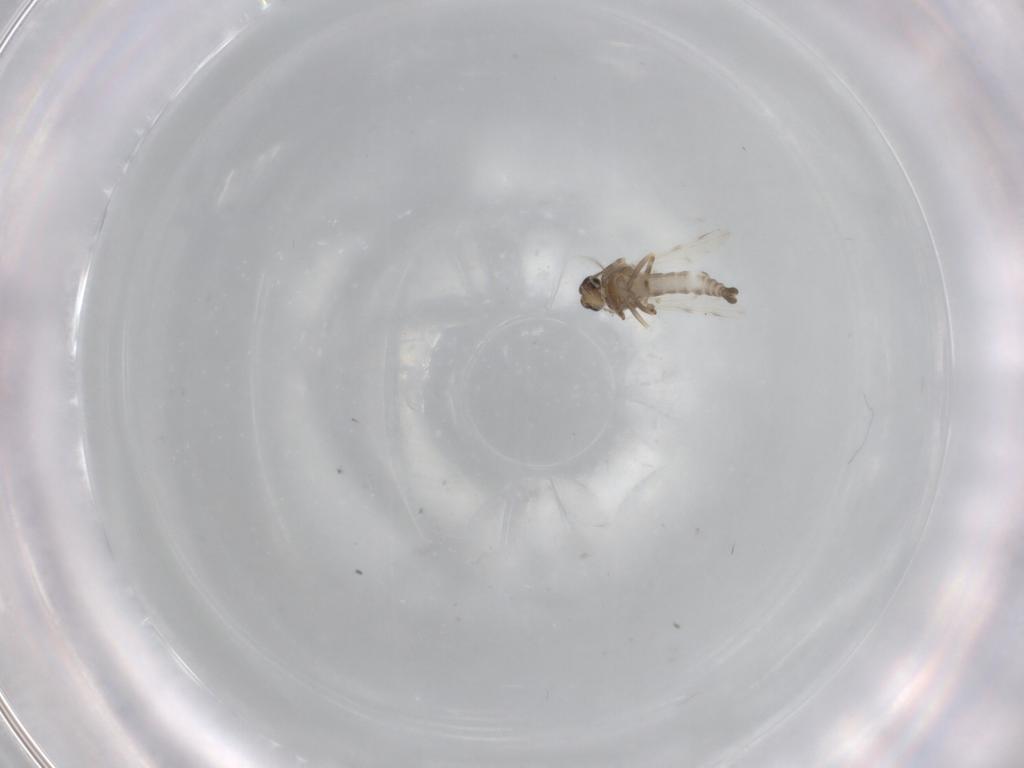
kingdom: Animalia
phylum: Arthropoda
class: Insecta
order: Diptera
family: Ceratopogonidae
